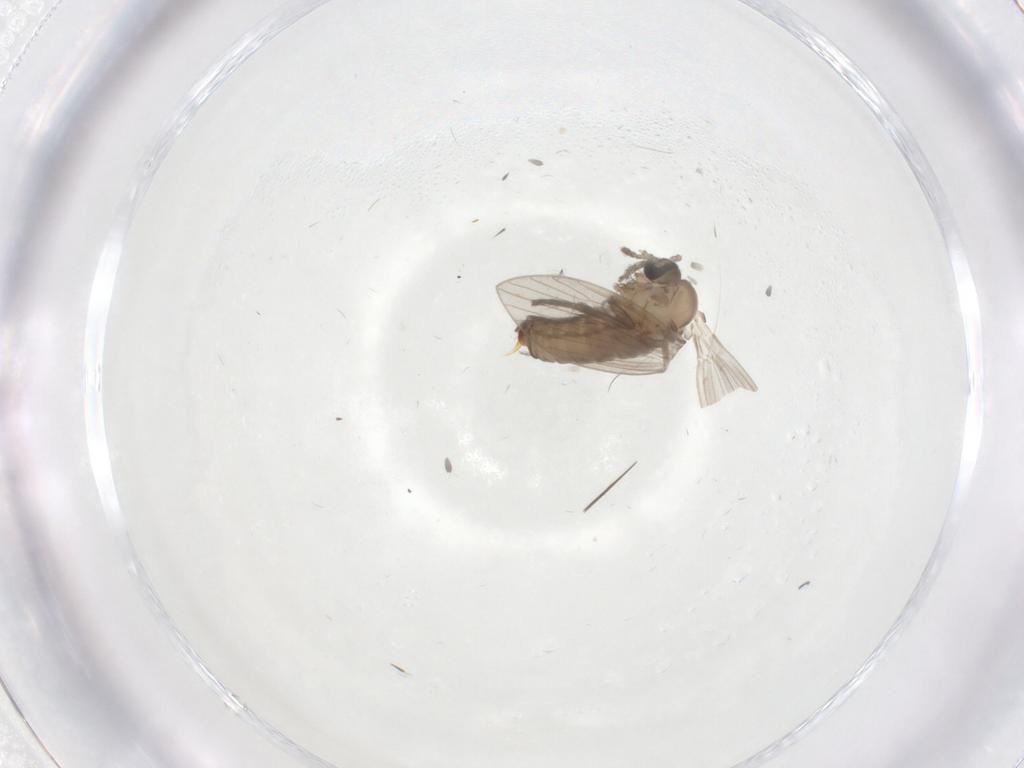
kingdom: Animalia
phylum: Arthropoda
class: Insecta
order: Diptera
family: Psychodidae
